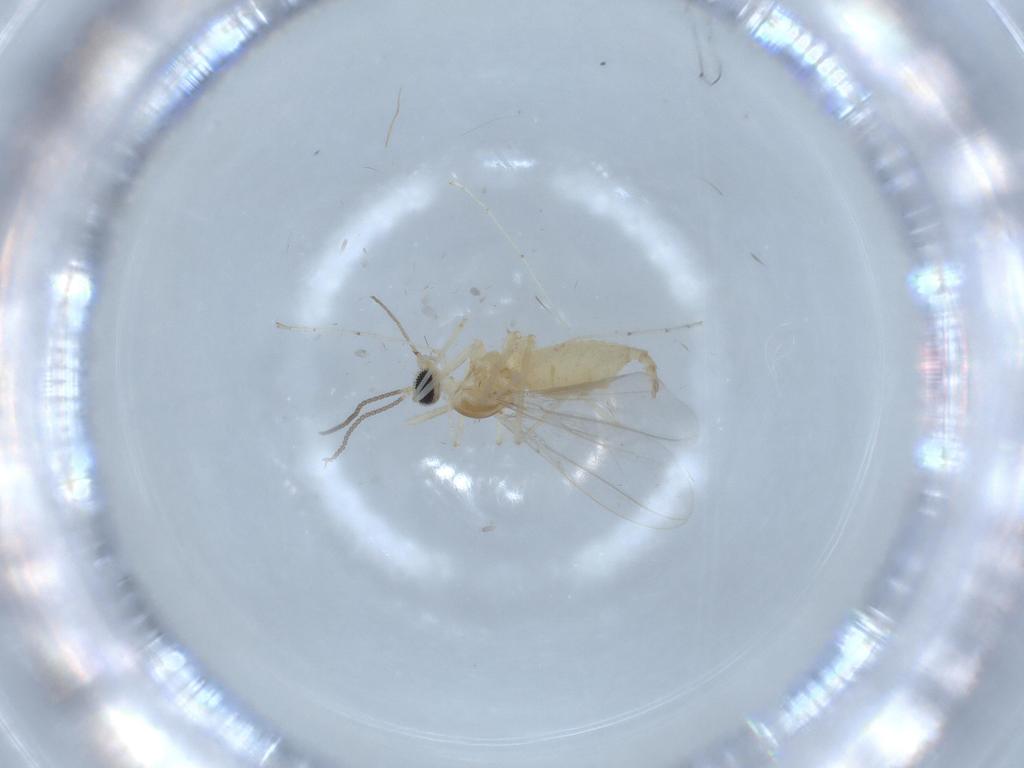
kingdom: Animalia
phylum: Arthropoda
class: Insecta
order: Diptera
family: Chironomidae
